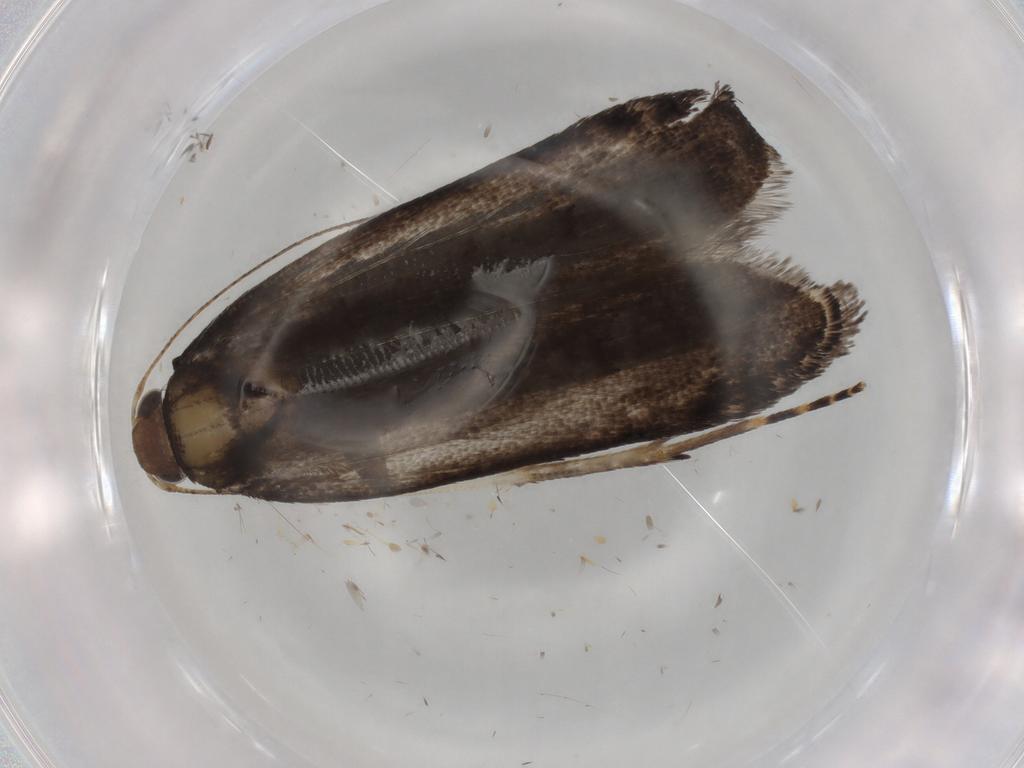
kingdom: Animalia
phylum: Arthropoda
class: Insecta
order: Lepidoptera
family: Gelechiidae
